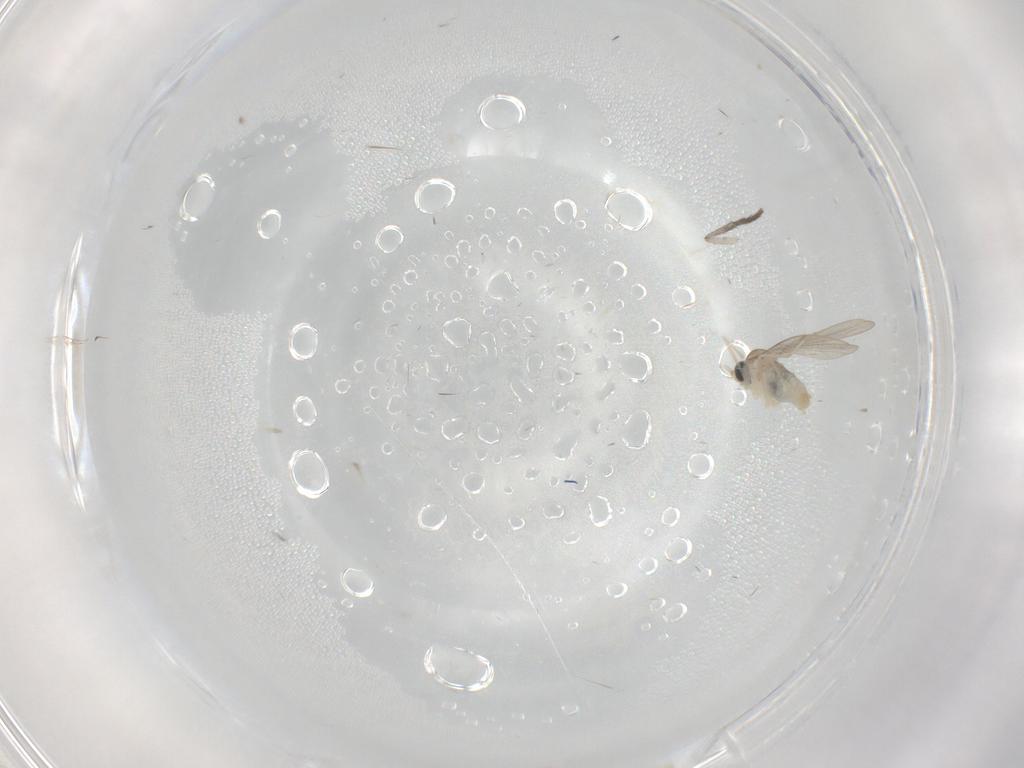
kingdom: Animalia
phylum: Arthropoda
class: Insecta
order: Diptera
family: Cecidomyiidae
